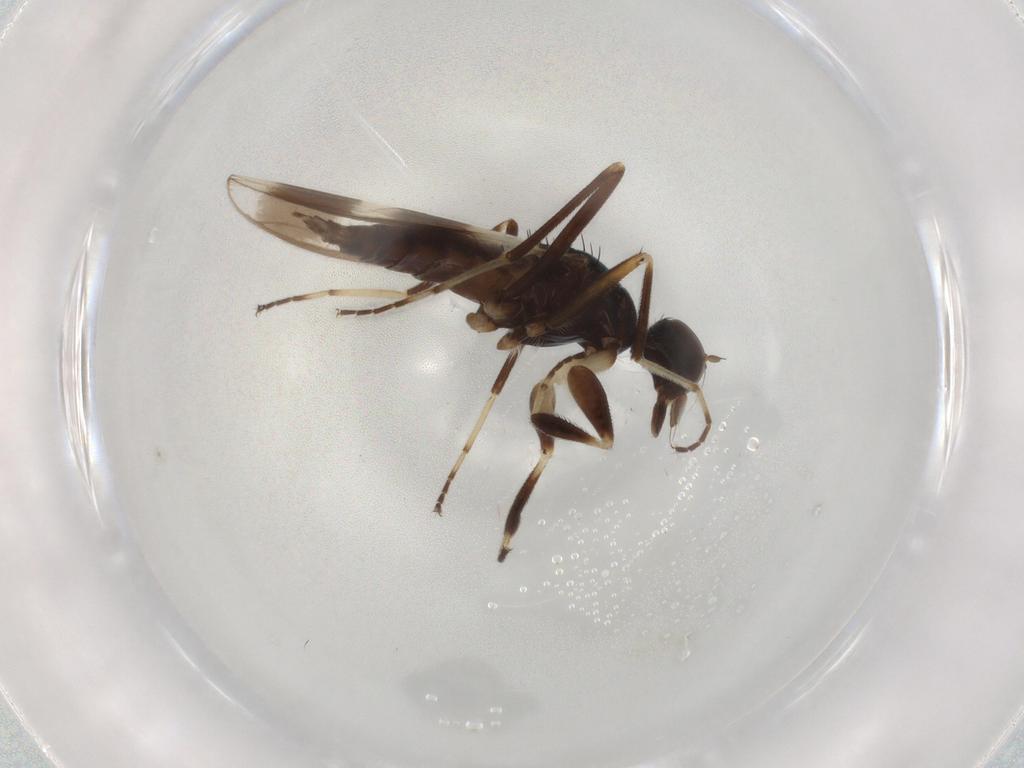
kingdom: Animalia
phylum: Arthropoda
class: Insecta
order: Diptera
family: Hybotidae
